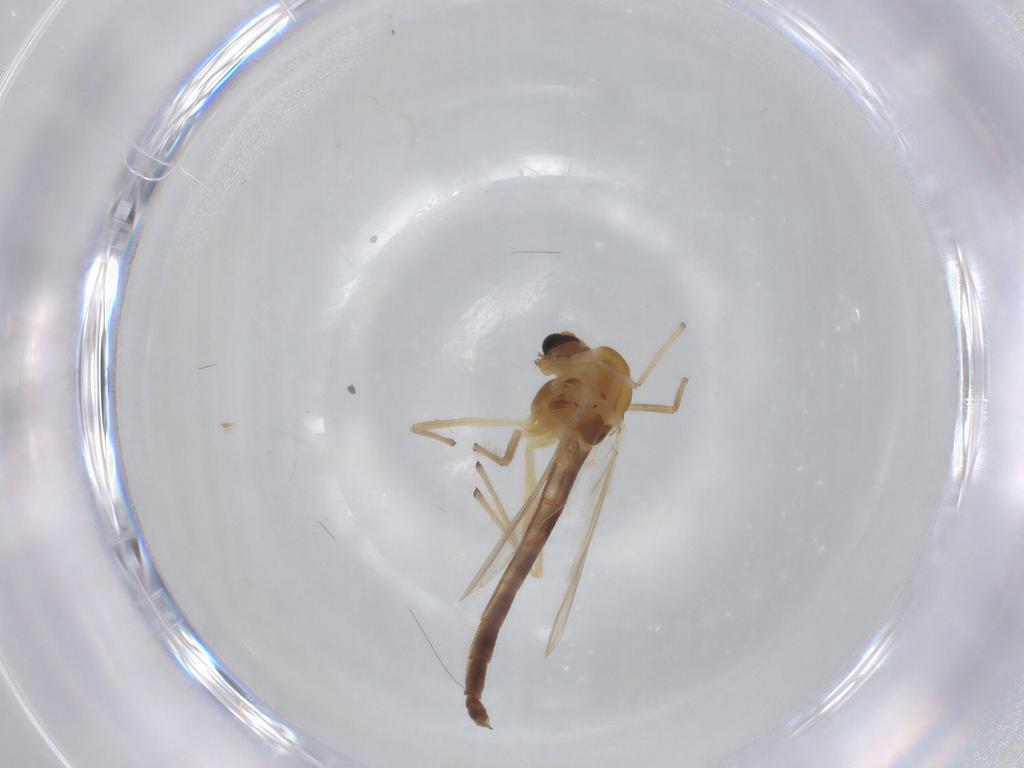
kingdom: Animalia
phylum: Arthropoda
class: Insecta
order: Diptera
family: Chironomidae
